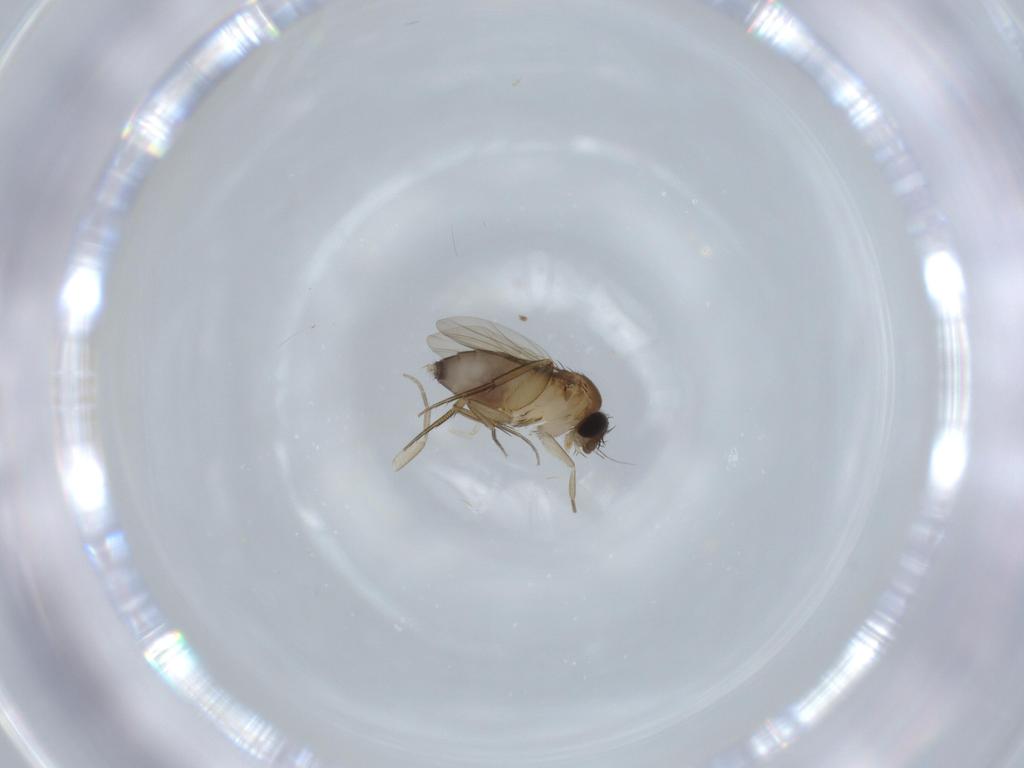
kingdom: Animalia
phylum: Arthropoda
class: Insecta
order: Diptera
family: Phoridae
